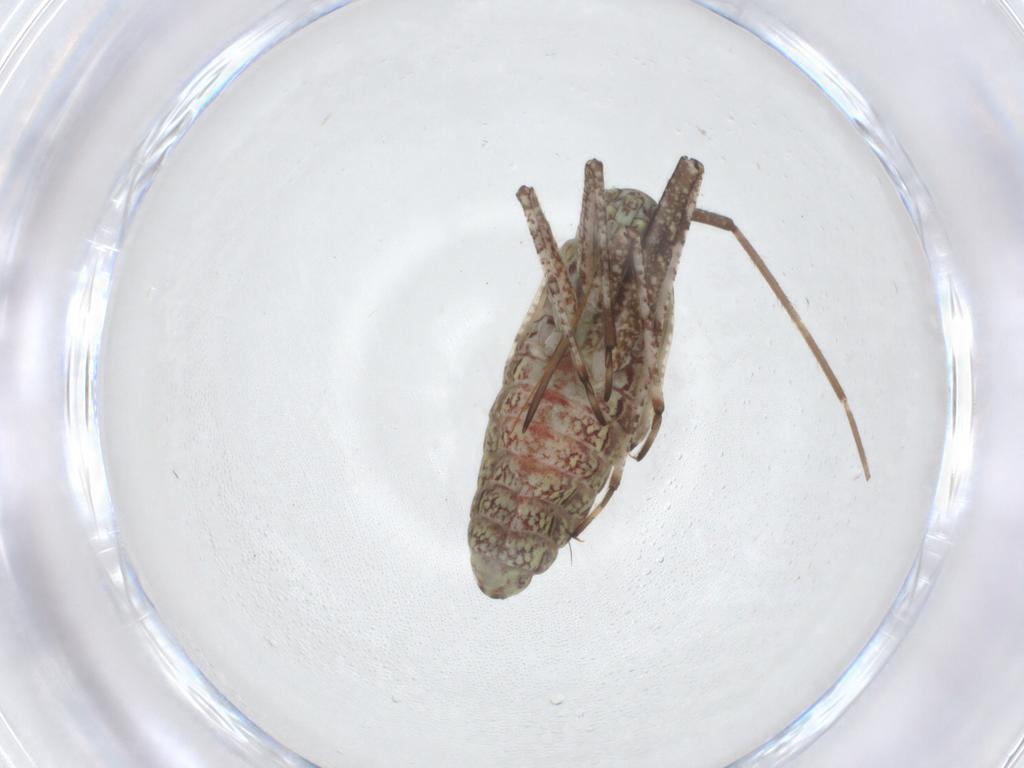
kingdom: Animalia
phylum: Arthropoda
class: Insecta
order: Hemiptera
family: Miridae
